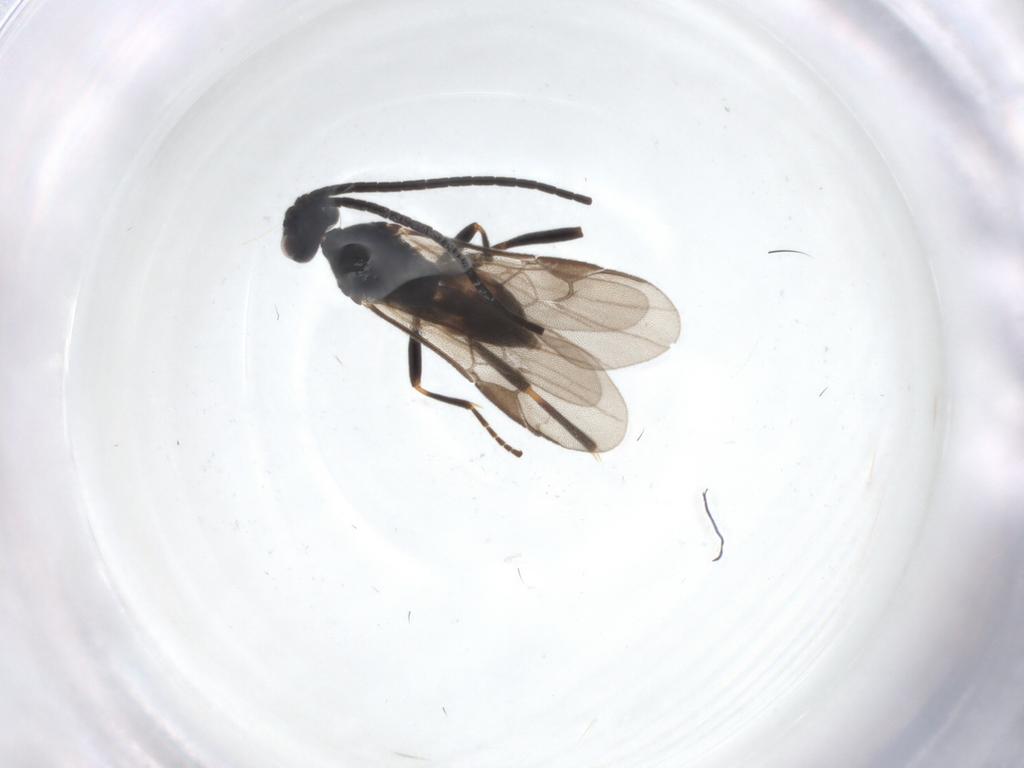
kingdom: Animalia
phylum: Arthropoda
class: Insecta
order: Hymenoptera
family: Braconidae
